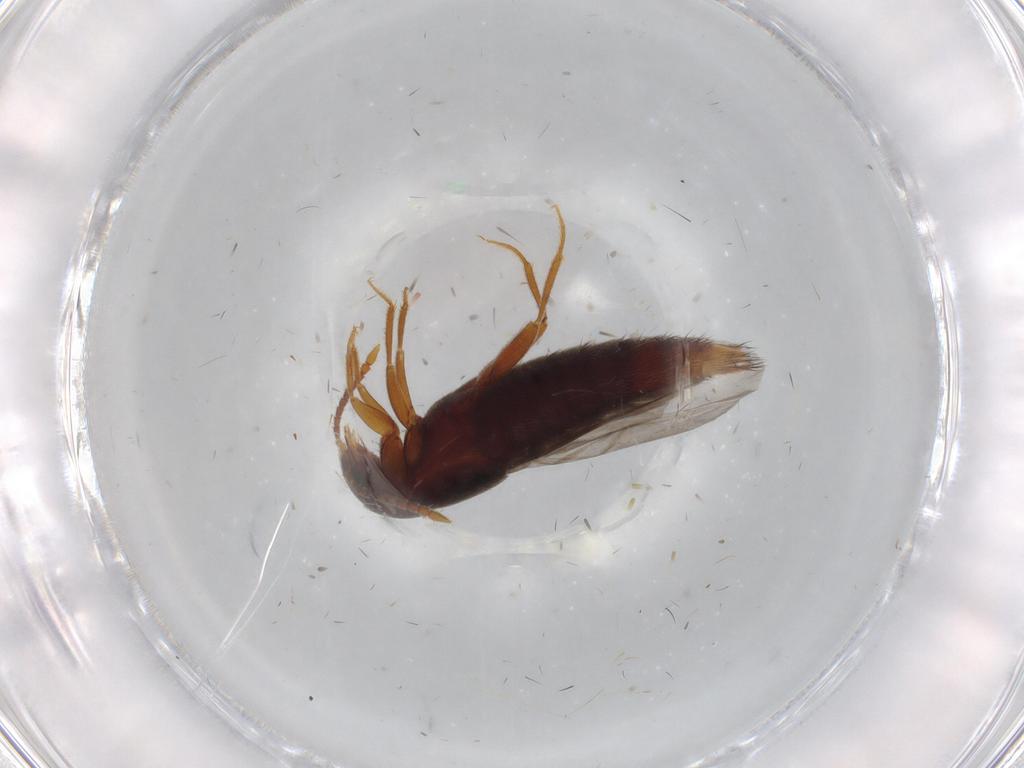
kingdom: Animalia
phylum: Arthropoda
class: Insecta
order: Coleoptera
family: Staphylinidae
